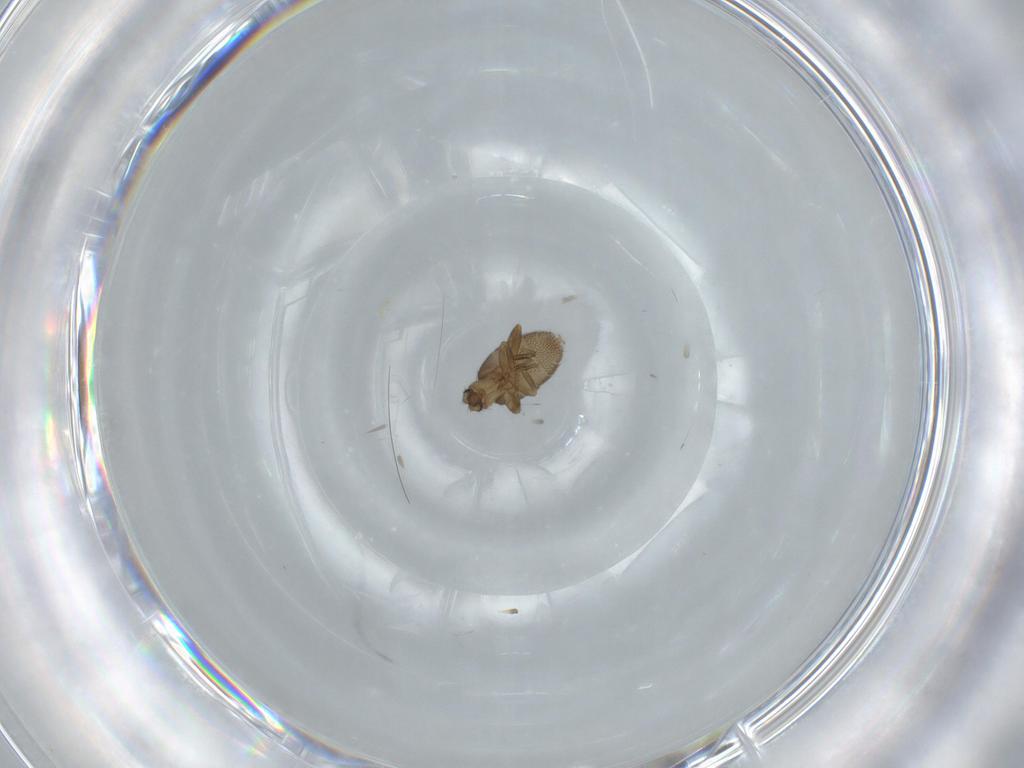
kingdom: Animalia
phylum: Arthropoda
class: Insecta
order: Diptera
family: Phoridae
